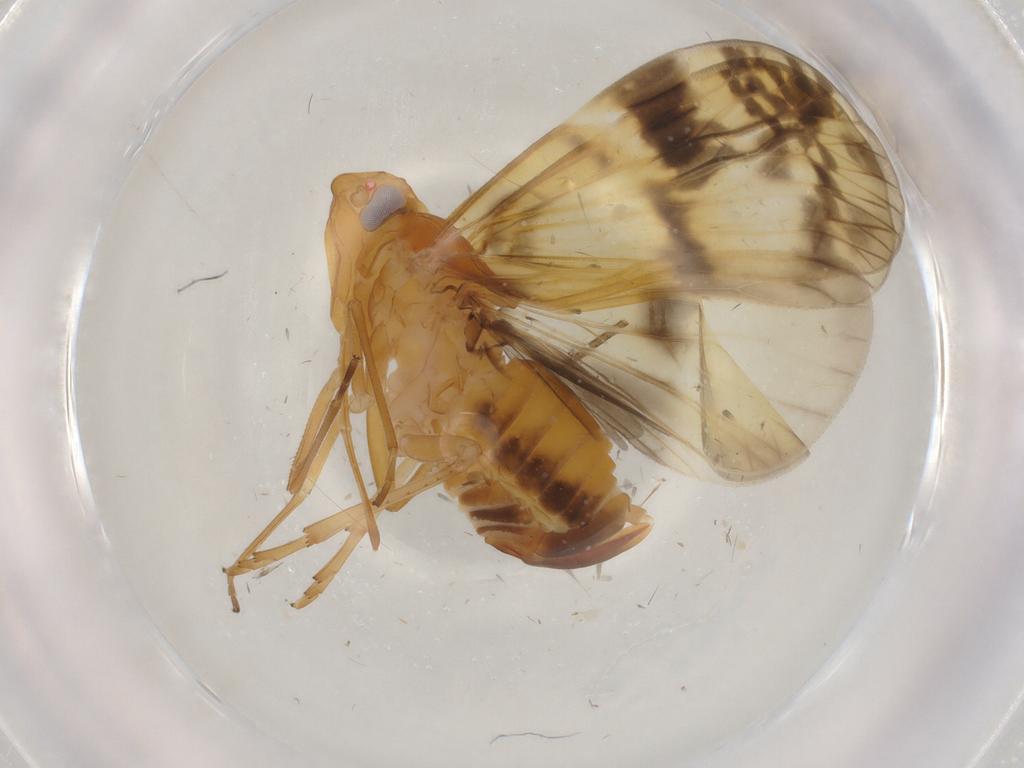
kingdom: Animalia
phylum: Arthropoda
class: Insecta
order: Hemiptera
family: Cixiidae
